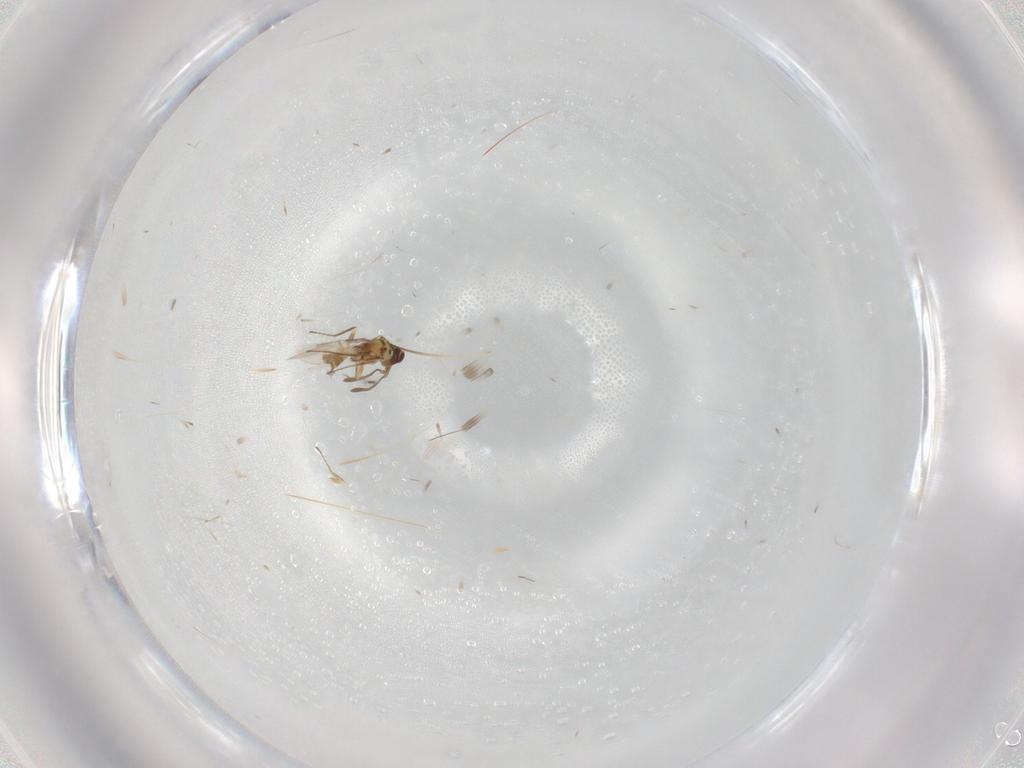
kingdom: Animalia
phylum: Arthropoda
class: Insecta
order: Hymenoptera
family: Mymaridae
